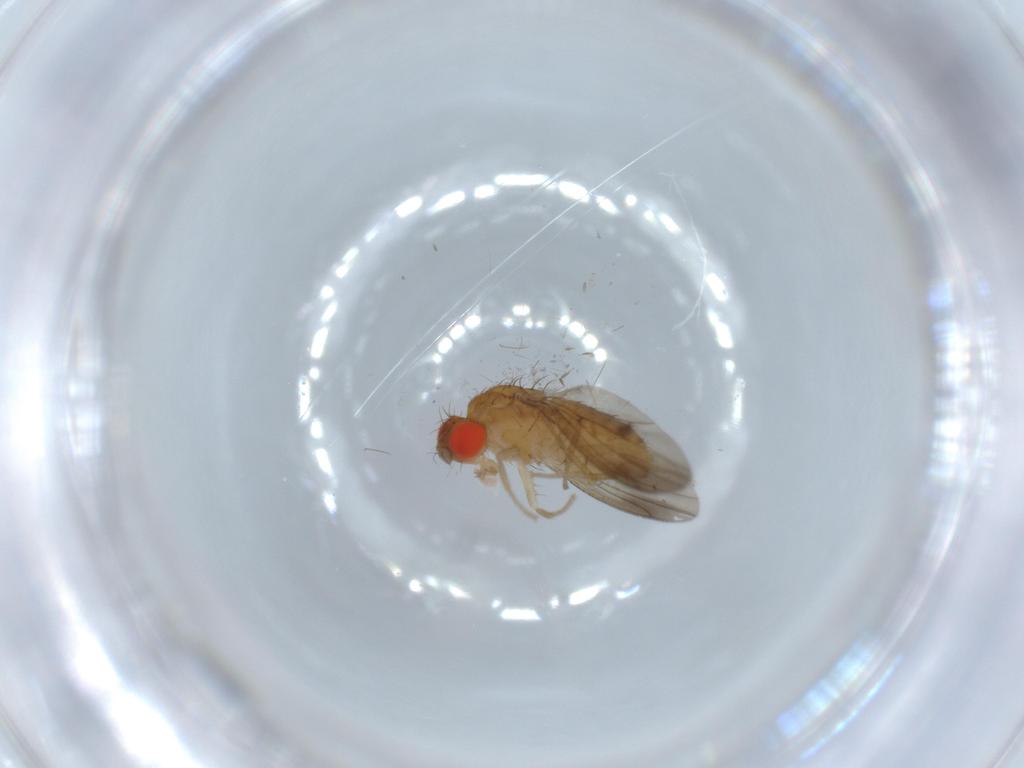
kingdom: Animalia
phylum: Arthropoda
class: Insecta
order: Diptera
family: Drosophilidae
